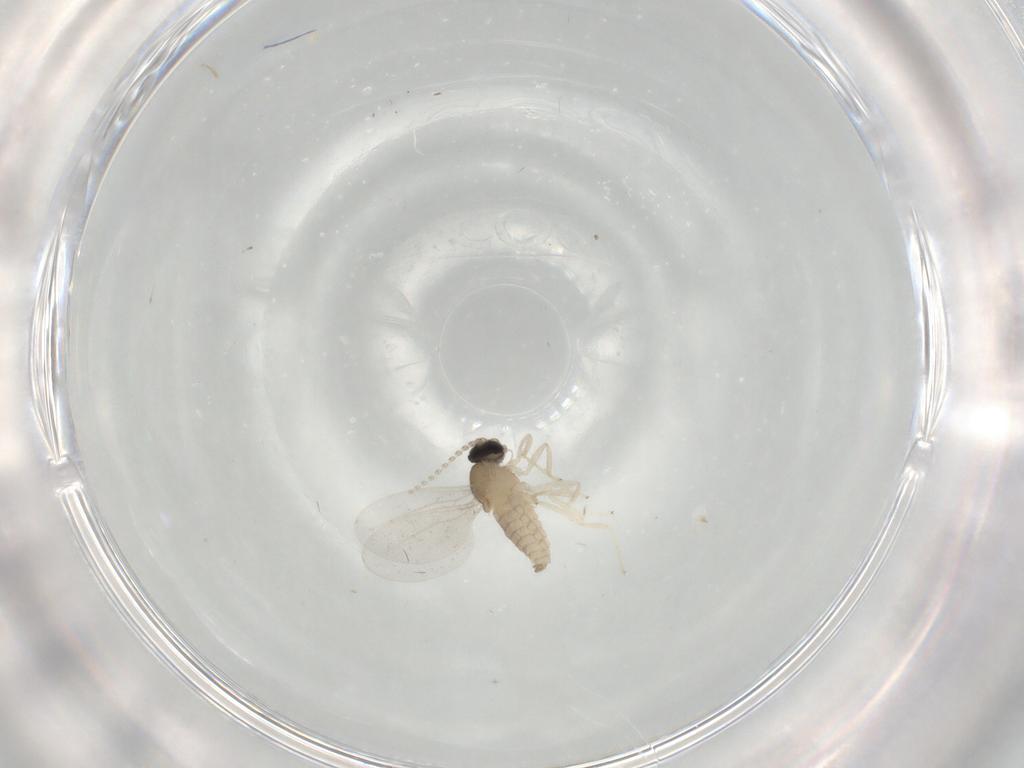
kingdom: Animalia
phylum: Arthropoda
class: Insecta
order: Diptera
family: Cecidomyiidae
